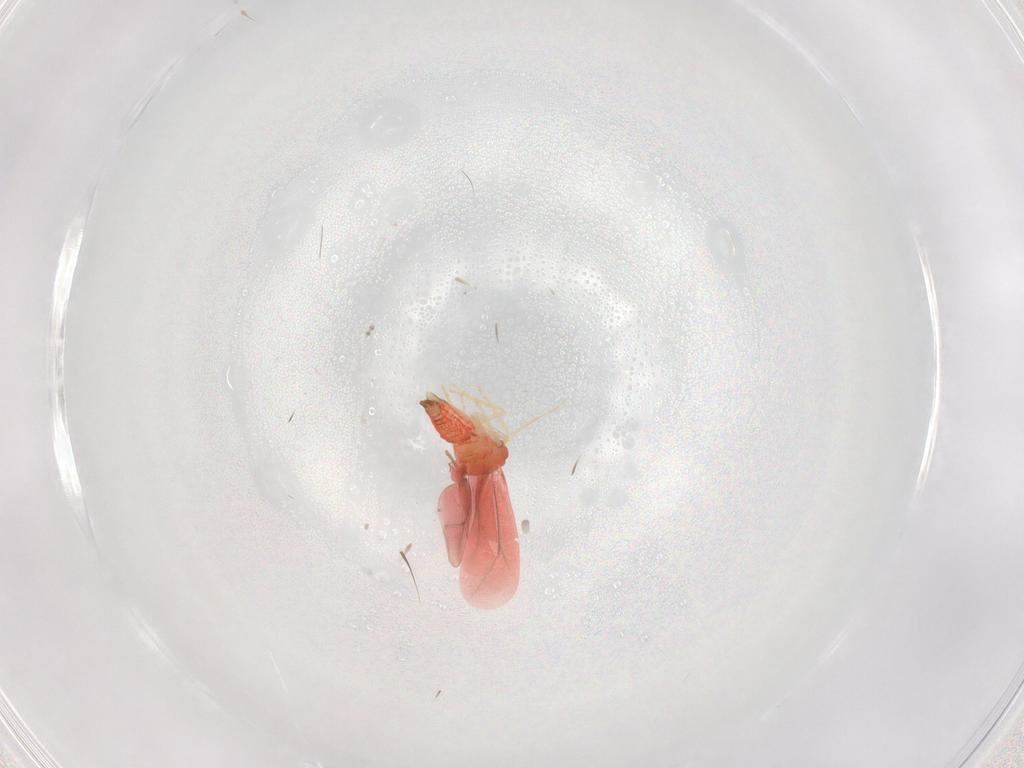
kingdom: Animalia
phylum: Arthropoda
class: Insecta
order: Hemiptera
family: Aleyrodidae
